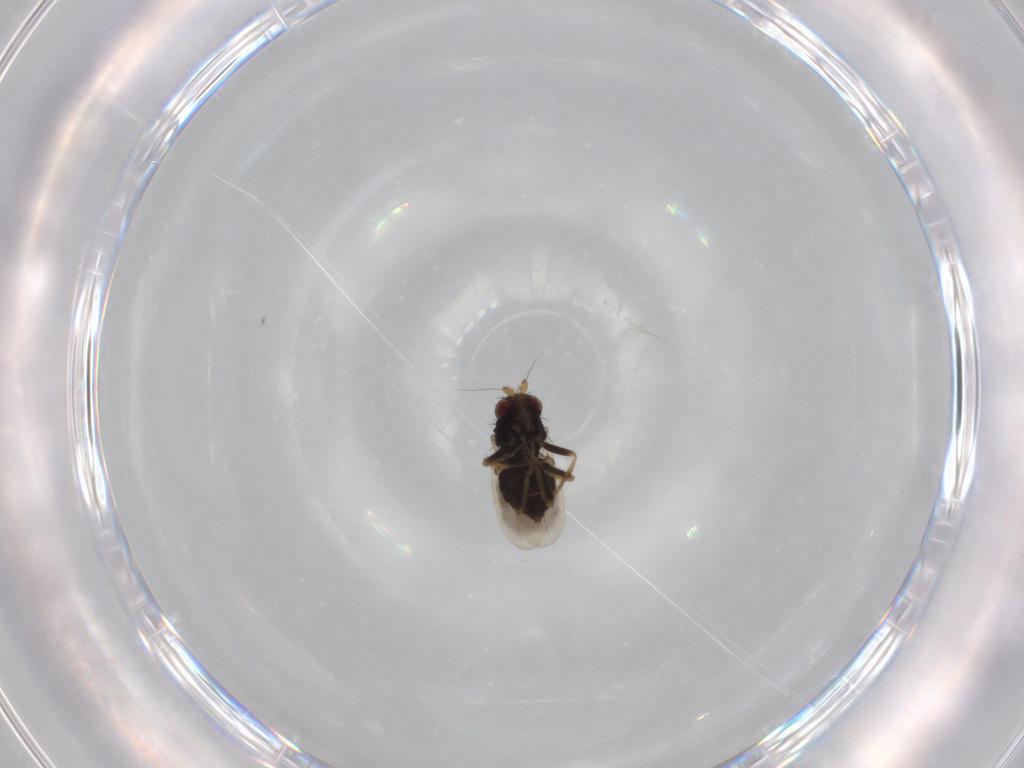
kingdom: Animalia
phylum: Arthropoda
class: Insecta
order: Diptera
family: Sphaeroceridae
